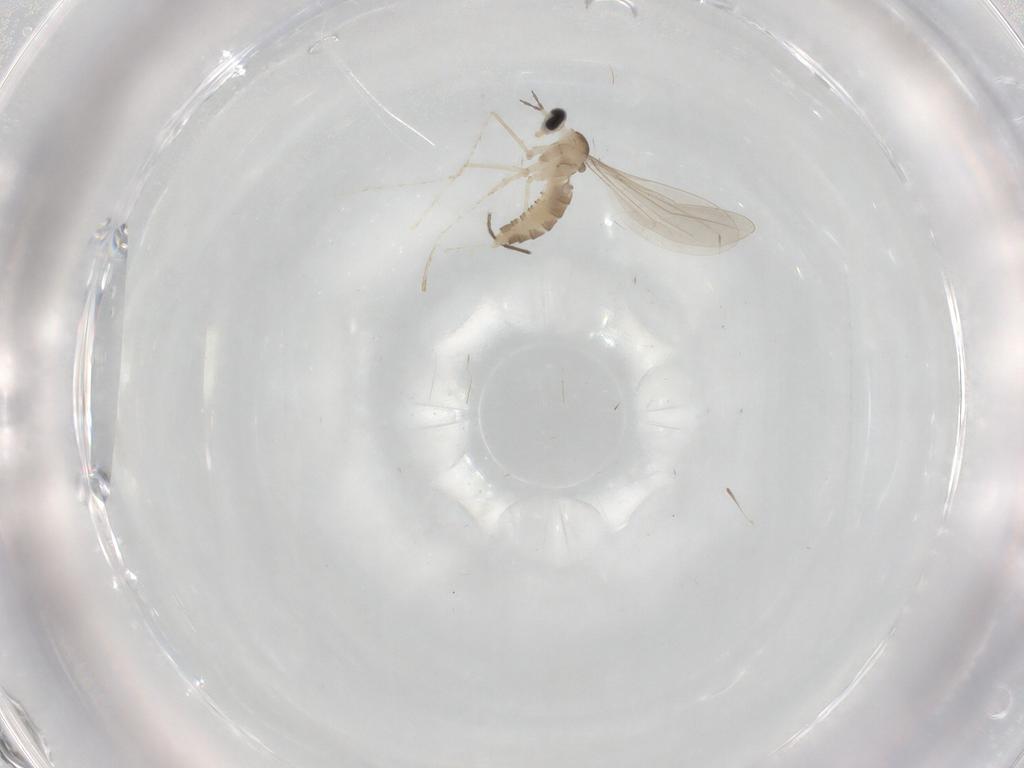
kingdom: Animalia
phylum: Arthropoda
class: Insecta
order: Diptera
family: Cecidomyiidae
